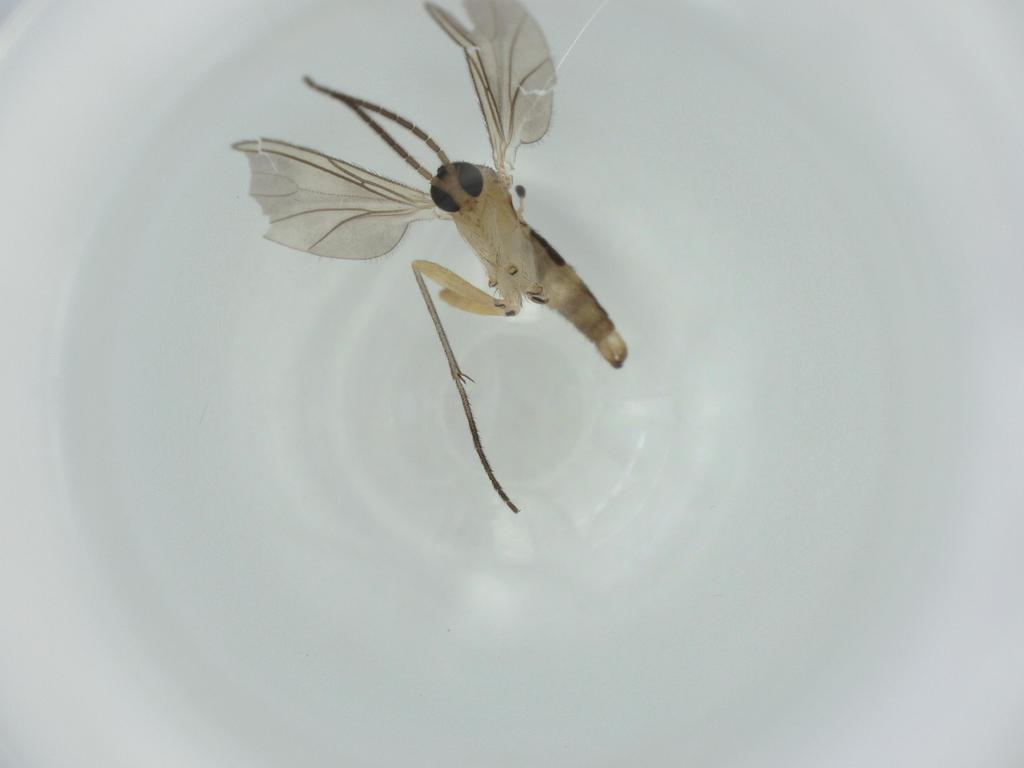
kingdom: Animalia
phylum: Arthropoda
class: Insecta
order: Diptera
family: Sciaridae
